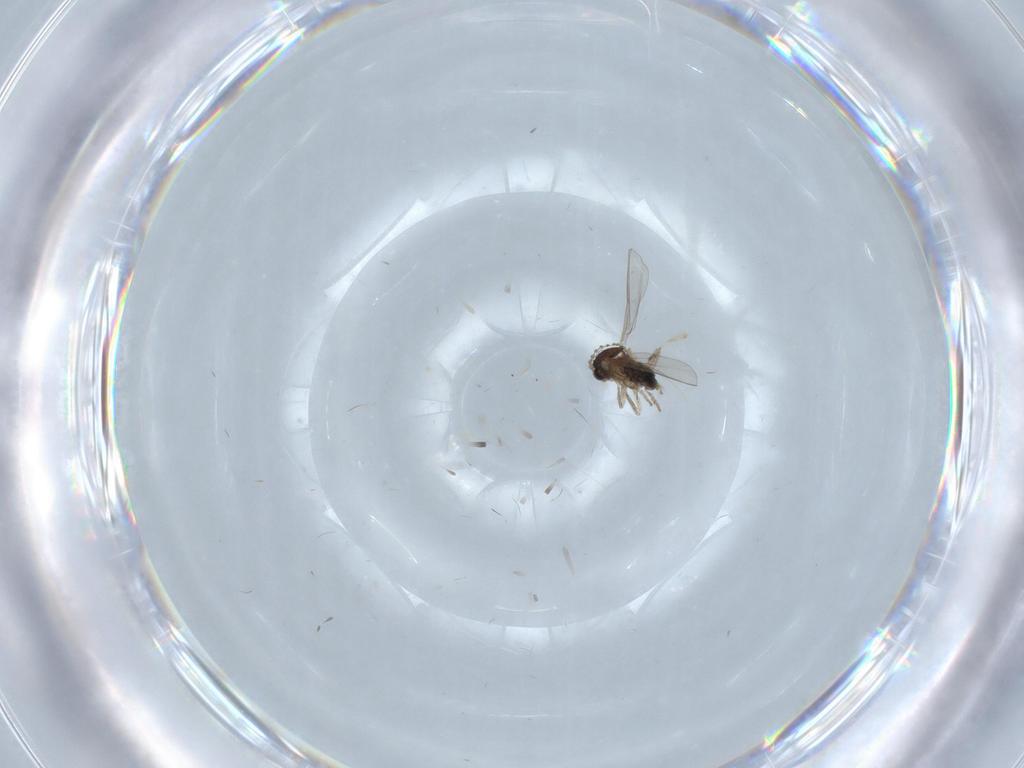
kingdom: Animalia
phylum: Arthropoda
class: Insecta
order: Diptera
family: Cecidomyiidae
